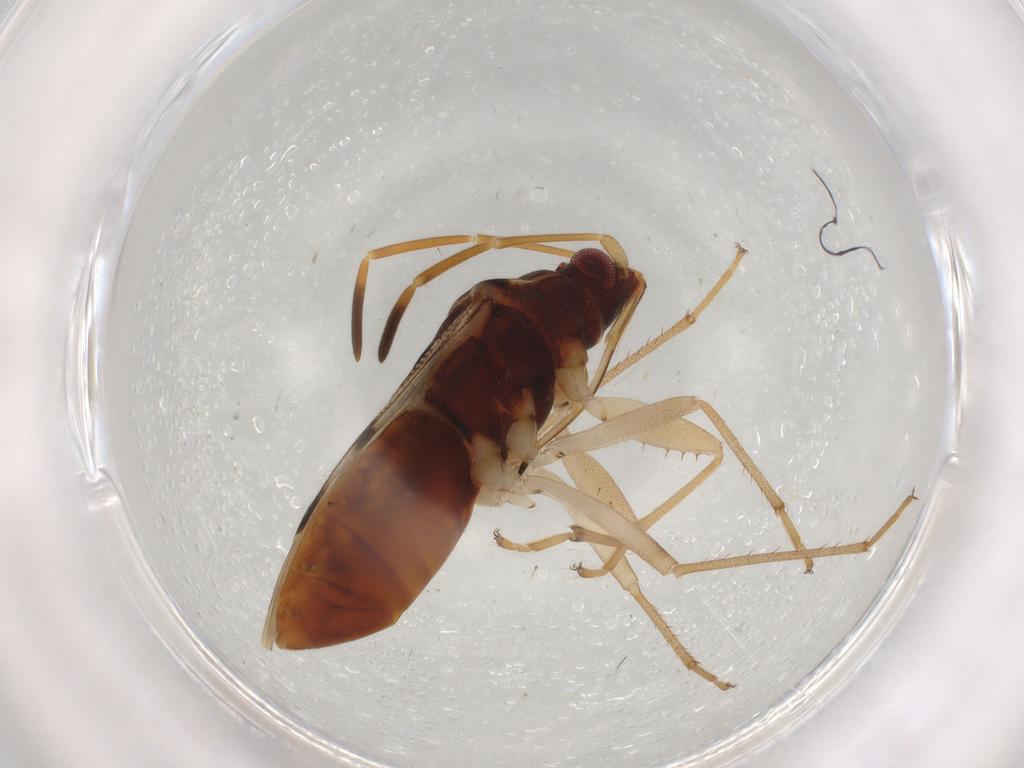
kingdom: Animalia
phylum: Arthropoda
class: Insecta
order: Hemiptera
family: Rhyparochromidae
